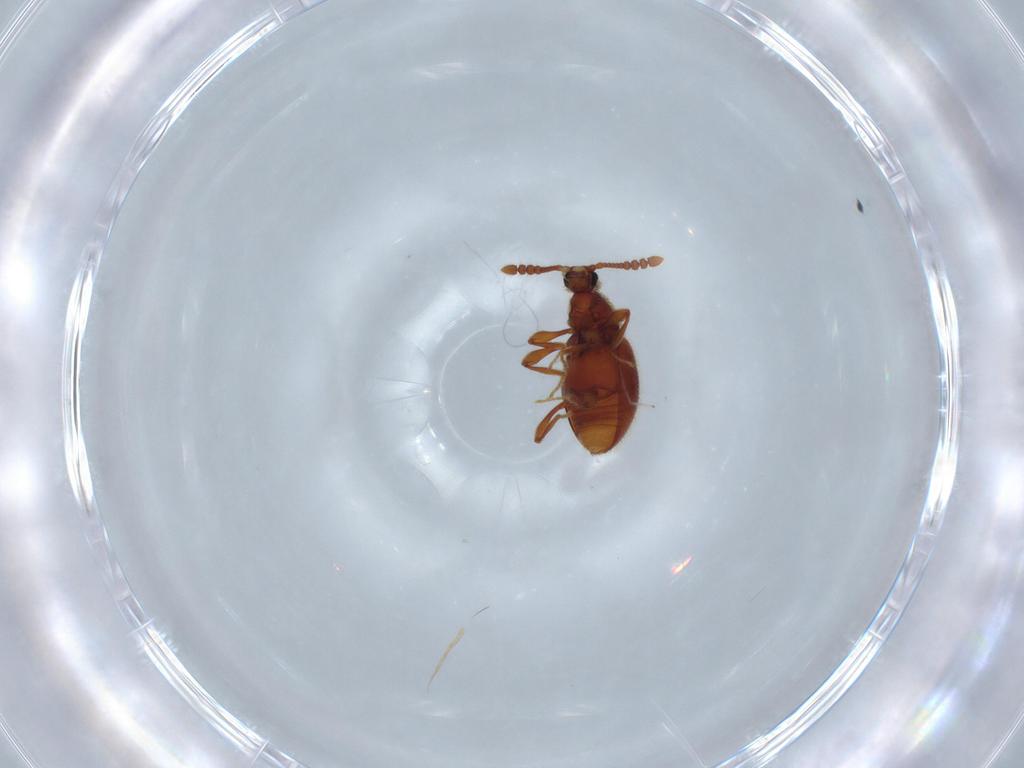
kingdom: Animalia
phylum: Arthropoda
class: Insecta
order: Coleoptera
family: Staphylinidae
